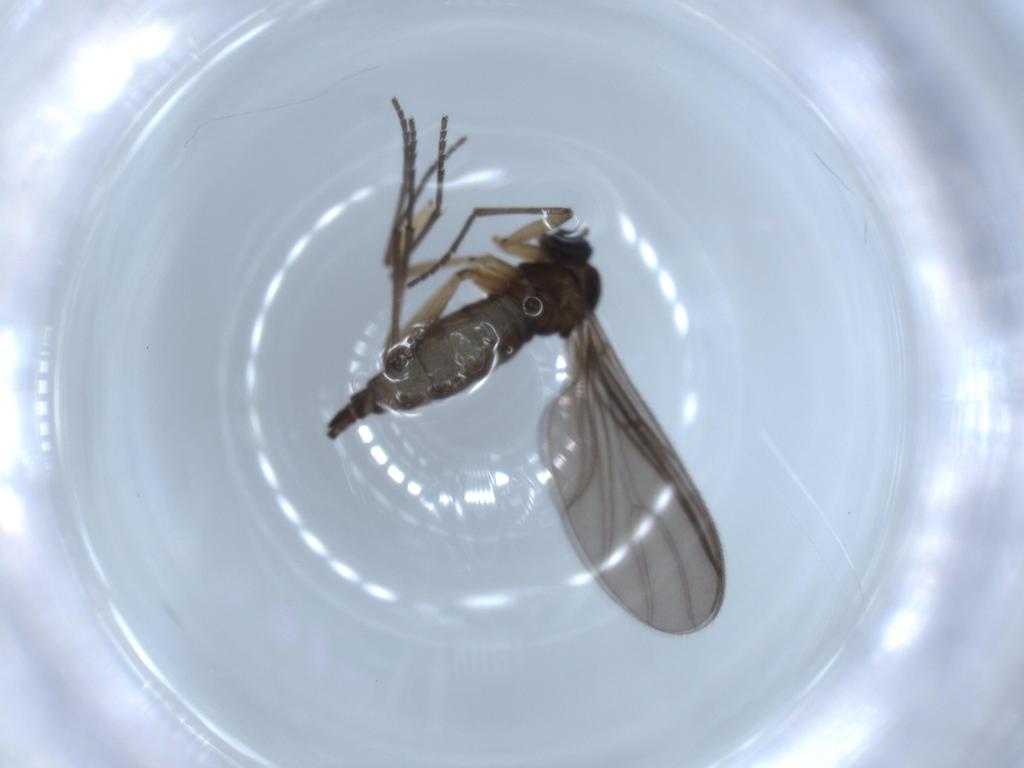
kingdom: Animalia
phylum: Arthropoda
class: Insecta
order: Diptera
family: Sciaridae
